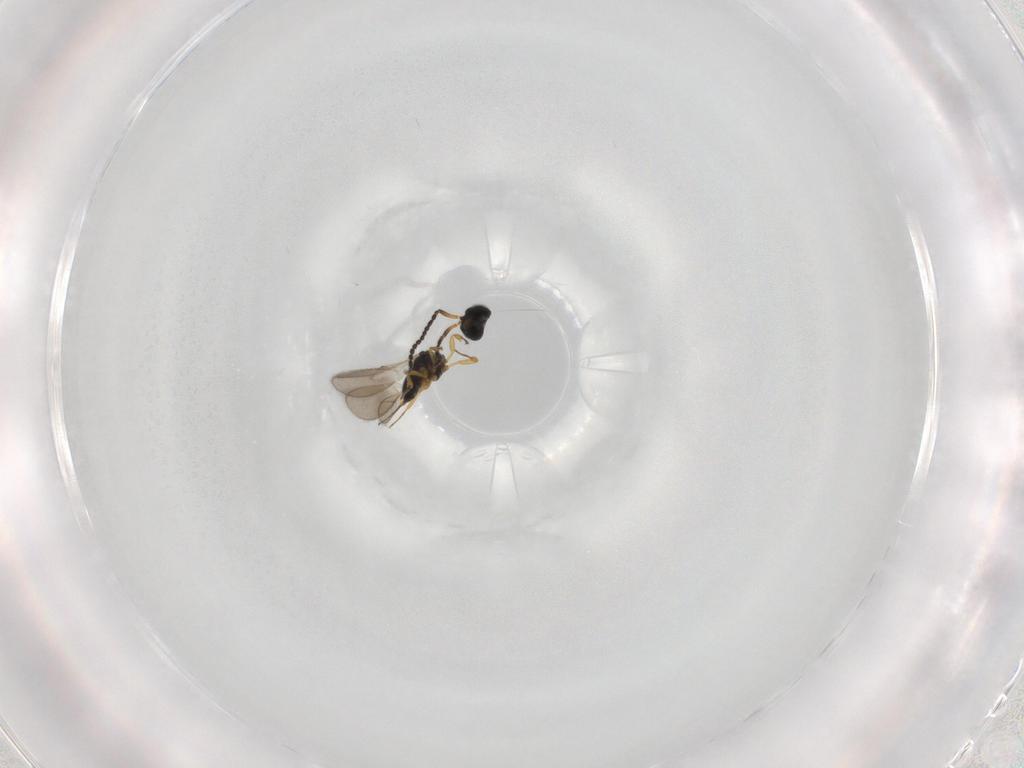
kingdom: Animalia
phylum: Arthropoda
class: Insecta
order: Hymenoptera
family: Scelionidae
